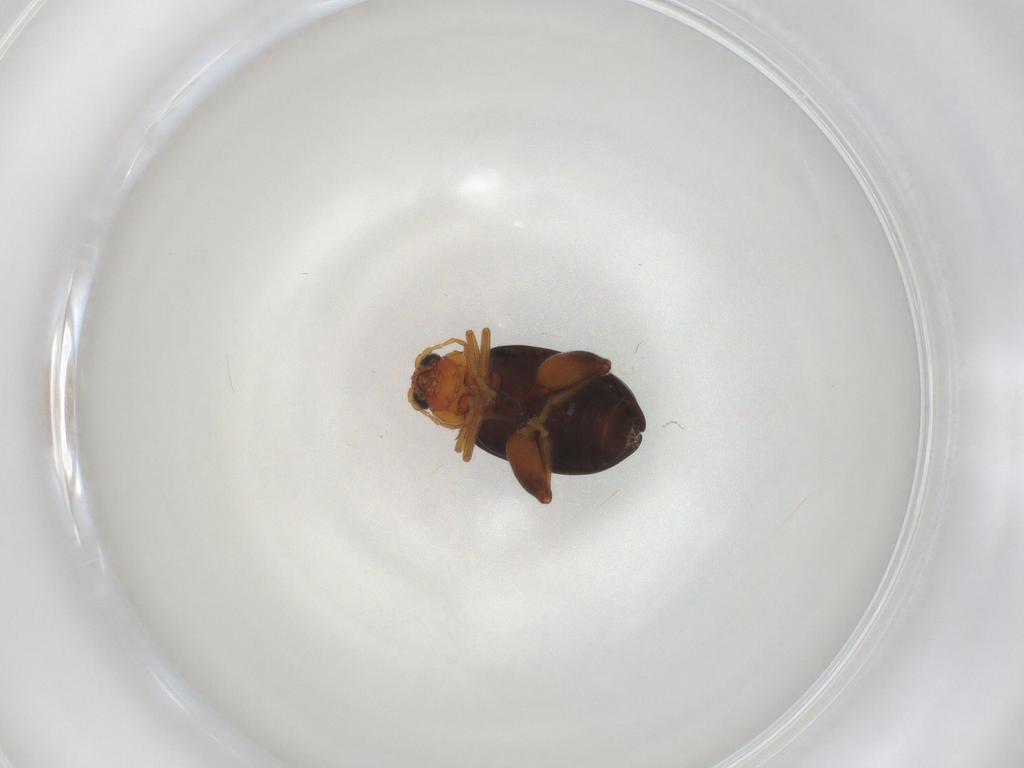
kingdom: Animalia
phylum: Arthropoda
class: Insecta
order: Coleoptera
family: Chrysomelidae
